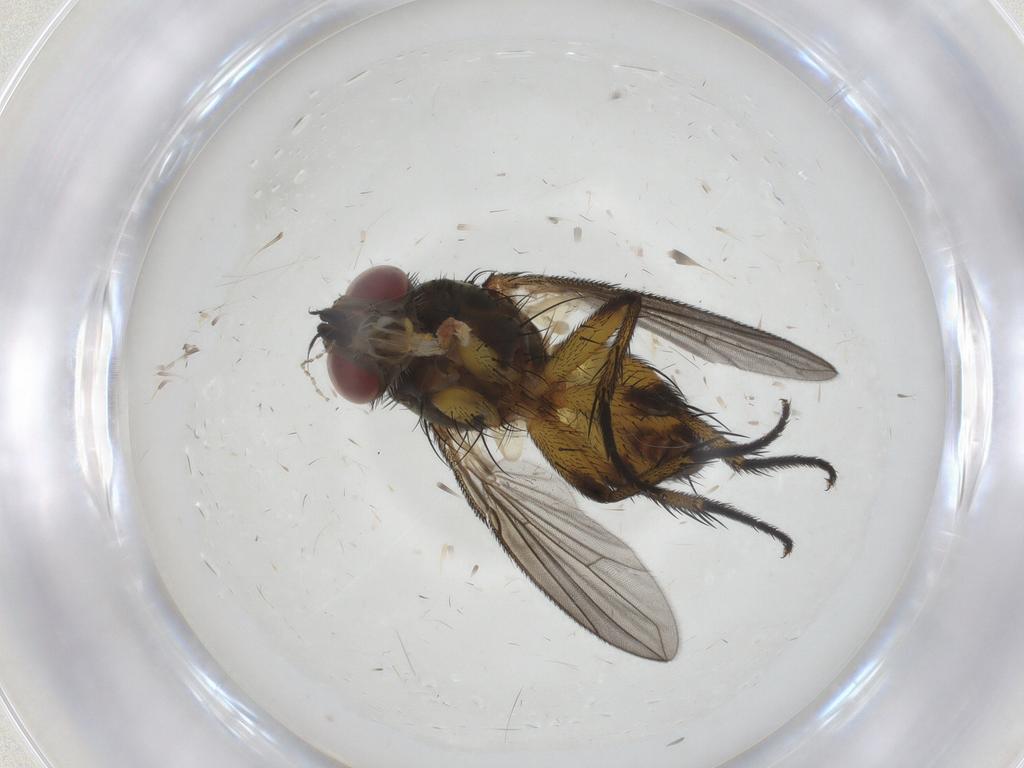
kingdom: Animalia
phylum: Arthropoda
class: Insecta
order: Diptera
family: Tachinidae
